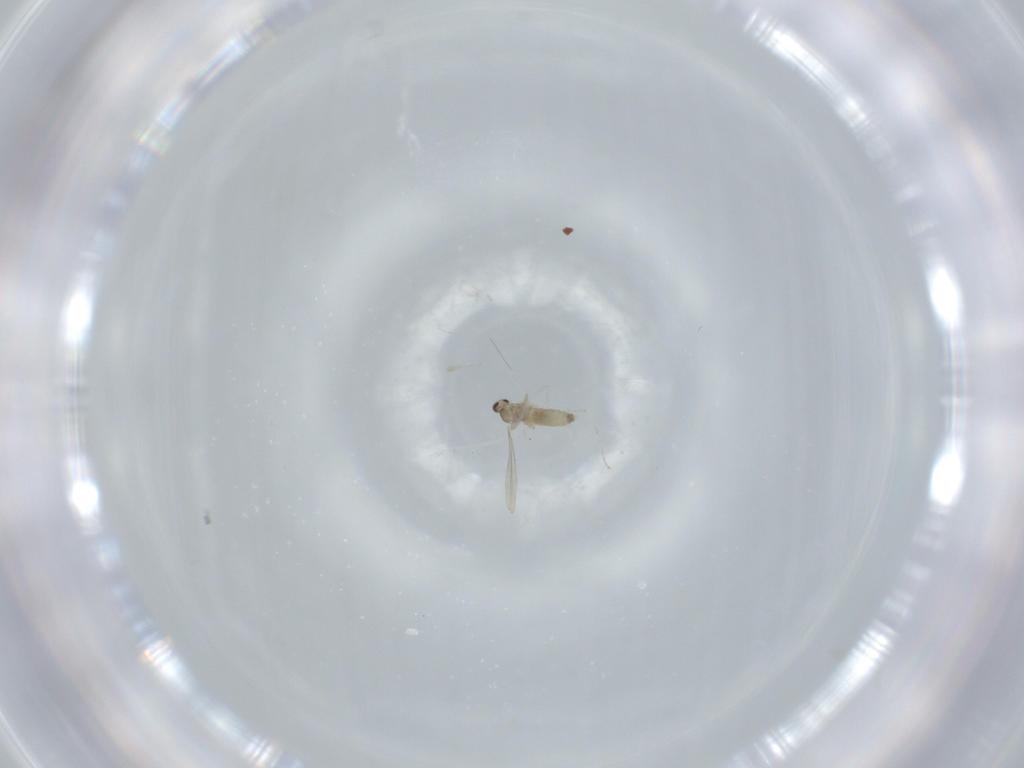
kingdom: Animalia
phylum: Arthropoda
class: Insecta
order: Diptera
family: Cecidomyiidae
